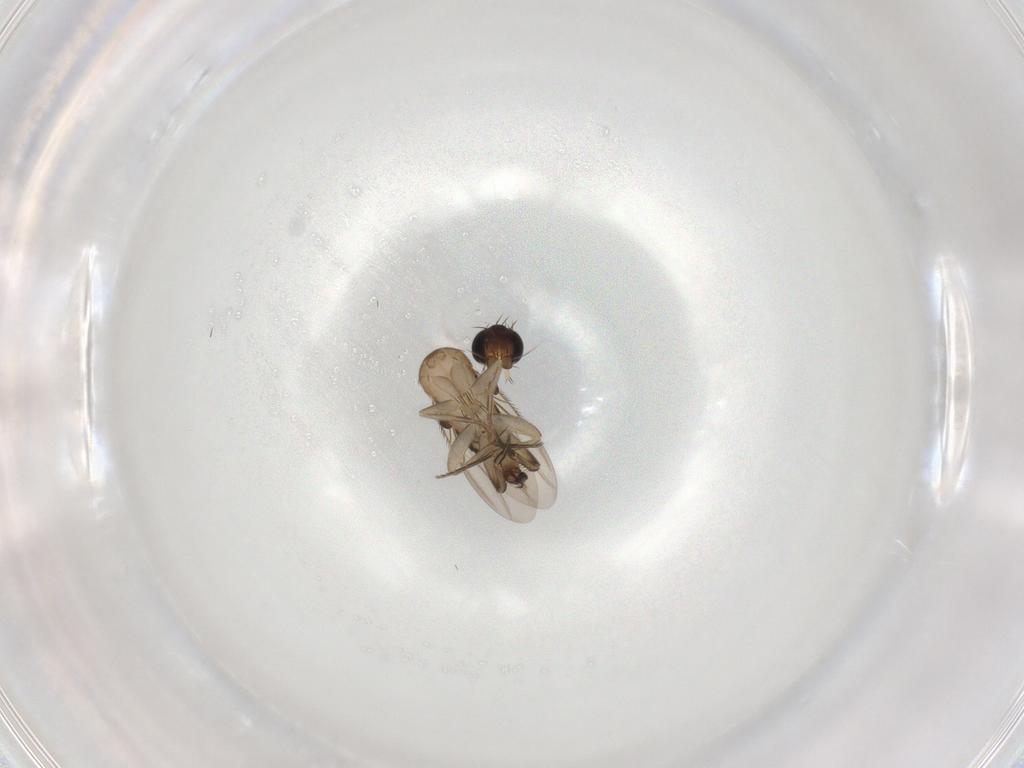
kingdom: Animalia
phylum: Arthropoda
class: Insecta
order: Diptera
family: Phoridae
